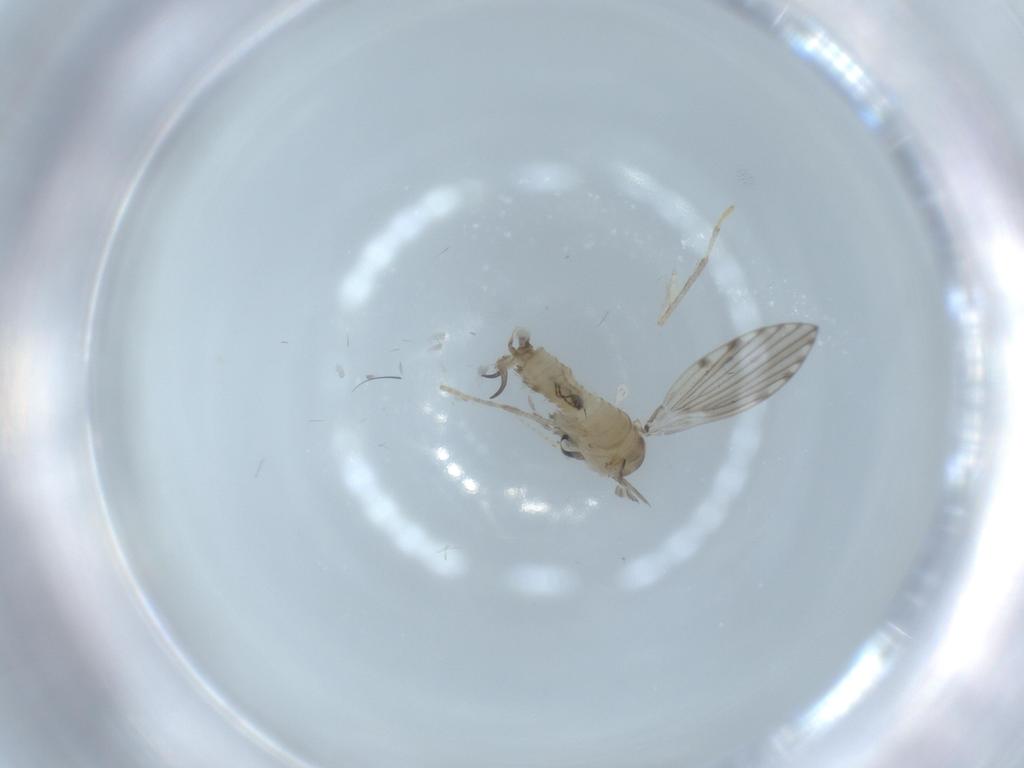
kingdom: Animalia
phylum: Arthropoda
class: Insecta
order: Diptera
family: Psychodidae
